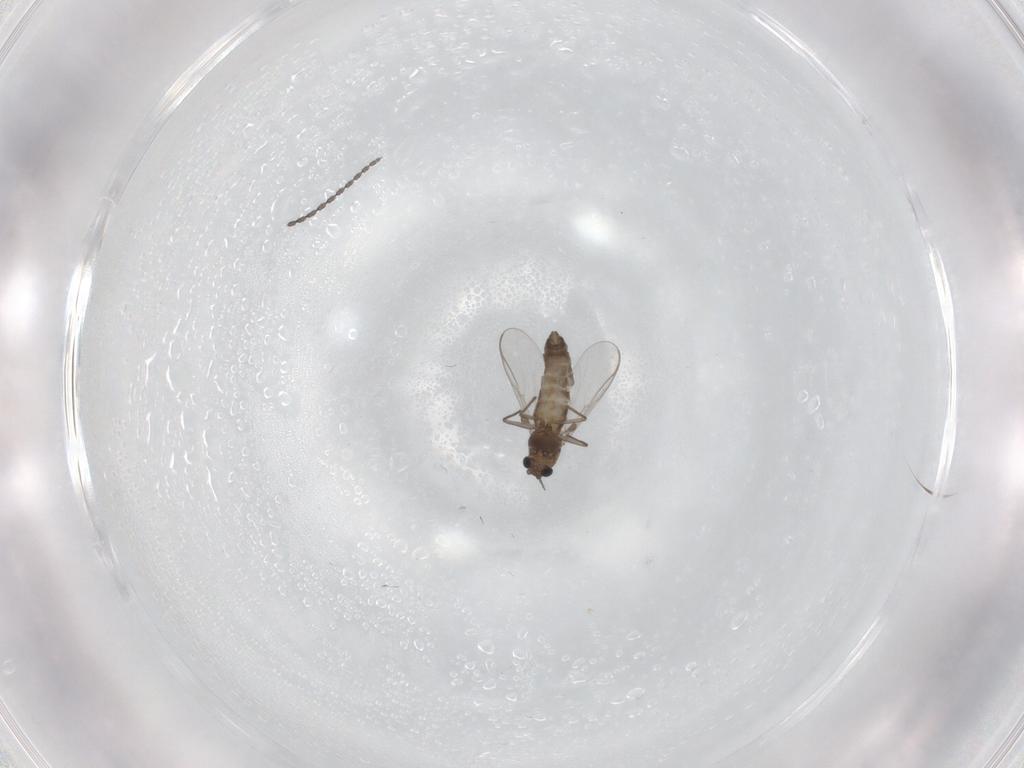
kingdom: Animalia
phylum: Arthropoda
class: Insecta
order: Diptera
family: Cecidomyiidae
